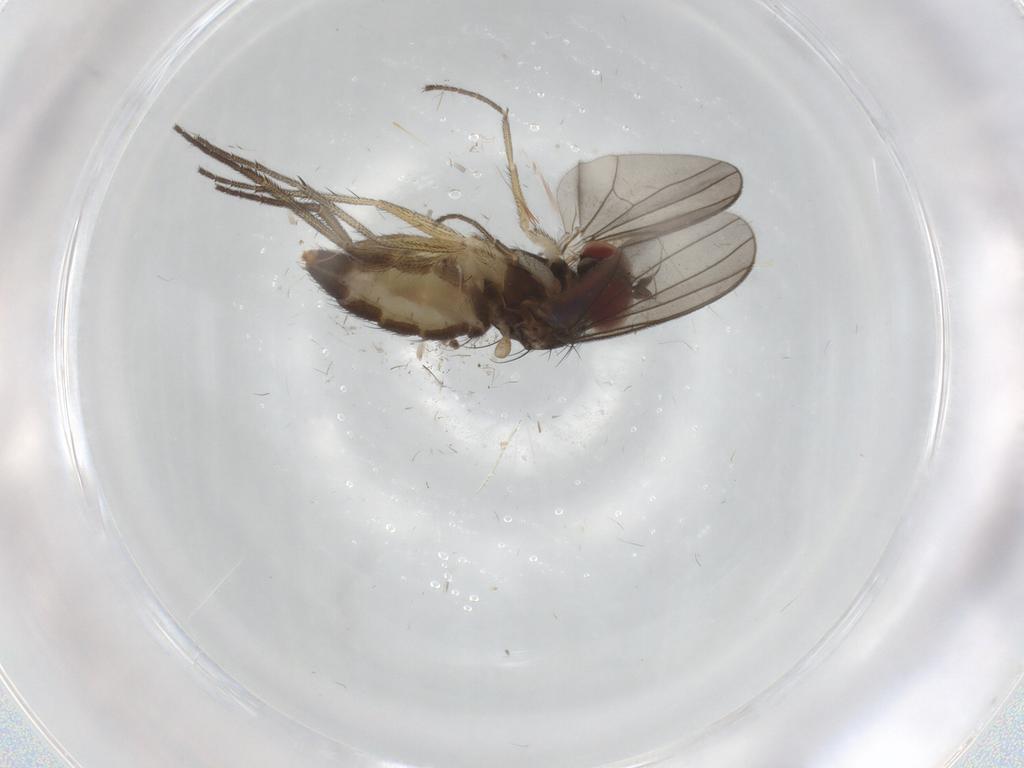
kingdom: Animalia
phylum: Arthropoda
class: Insecta
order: Diptera
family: Dolichopodidae
